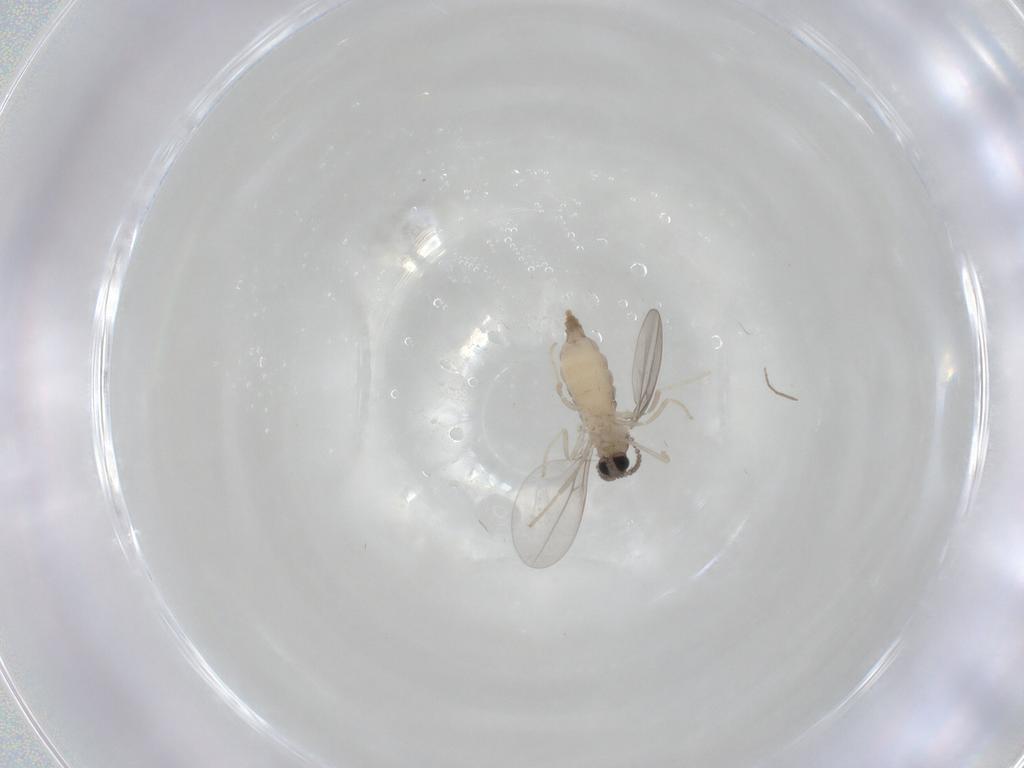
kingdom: Animalia
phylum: Arthropoda
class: Insecta
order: Diptera
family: Cecidomyiidae
